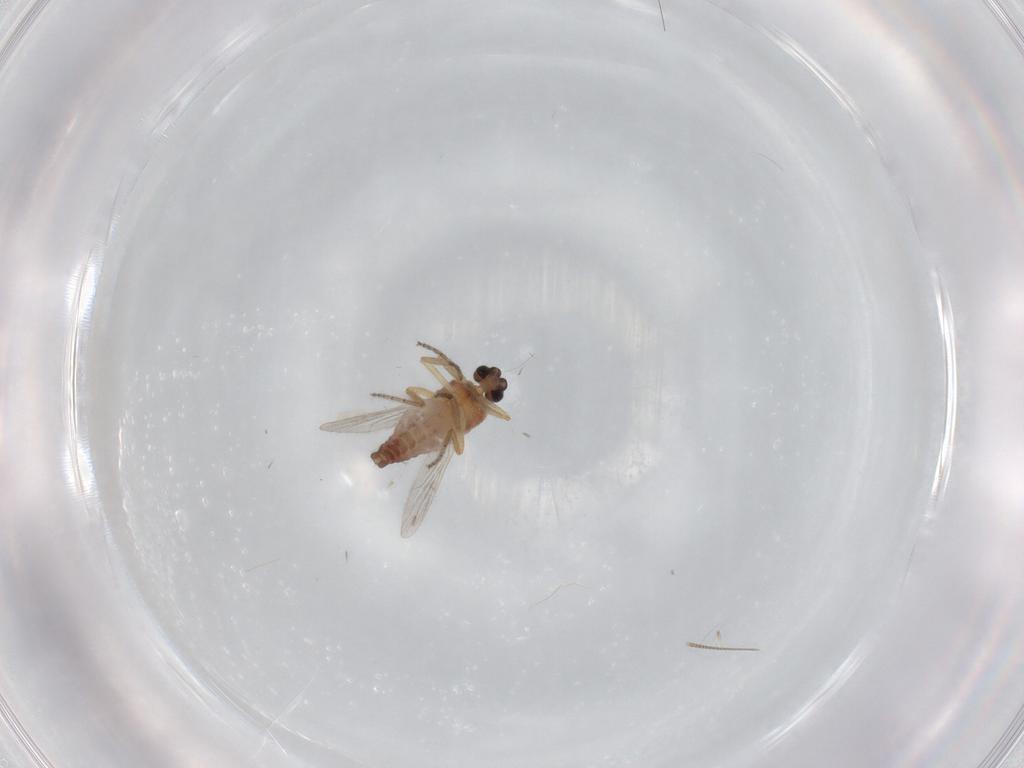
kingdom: Animalia
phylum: Arthropoda
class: Insecta
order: Diptera
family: Ceratopogonidae
